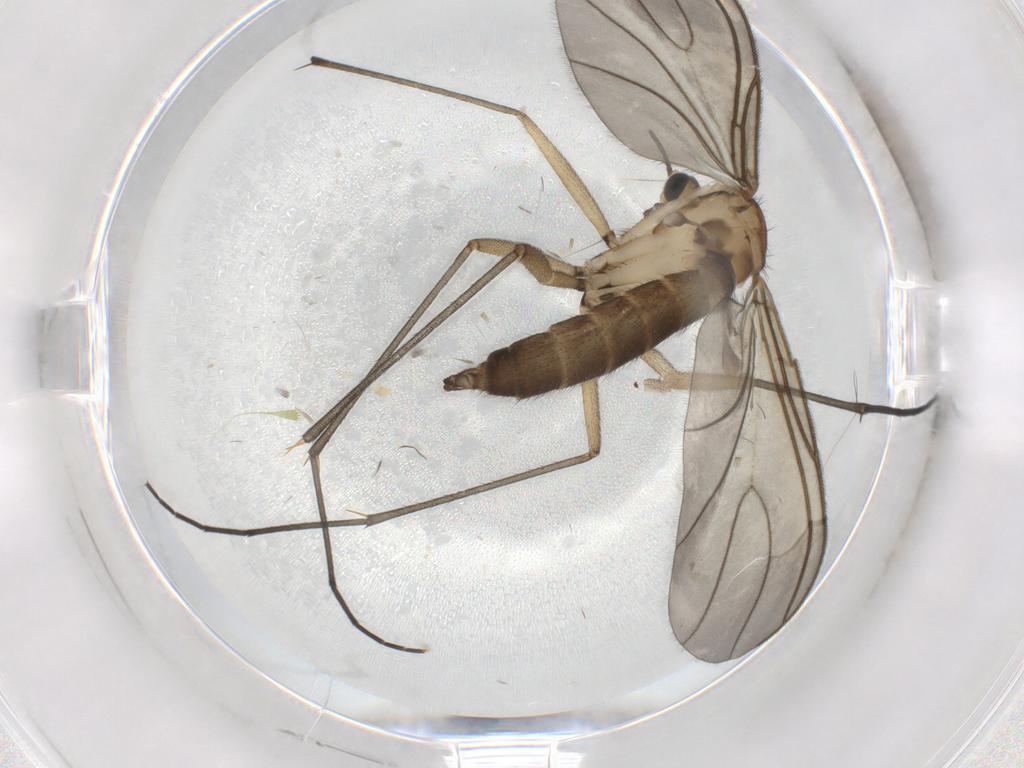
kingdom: Animalia
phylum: Arthropoda
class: Insecta
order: Diptera
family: Sciaridae
